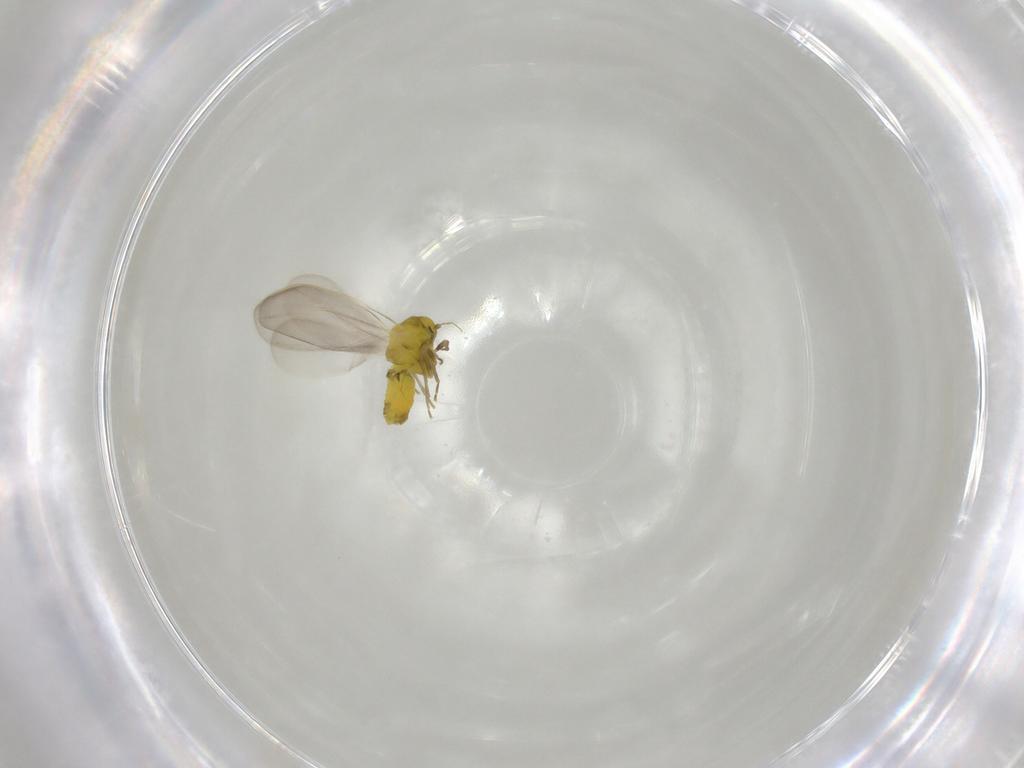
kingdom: Animalia
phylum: Arthropoda
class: Insecta
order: Hemiptera
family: Aleyrodidae
